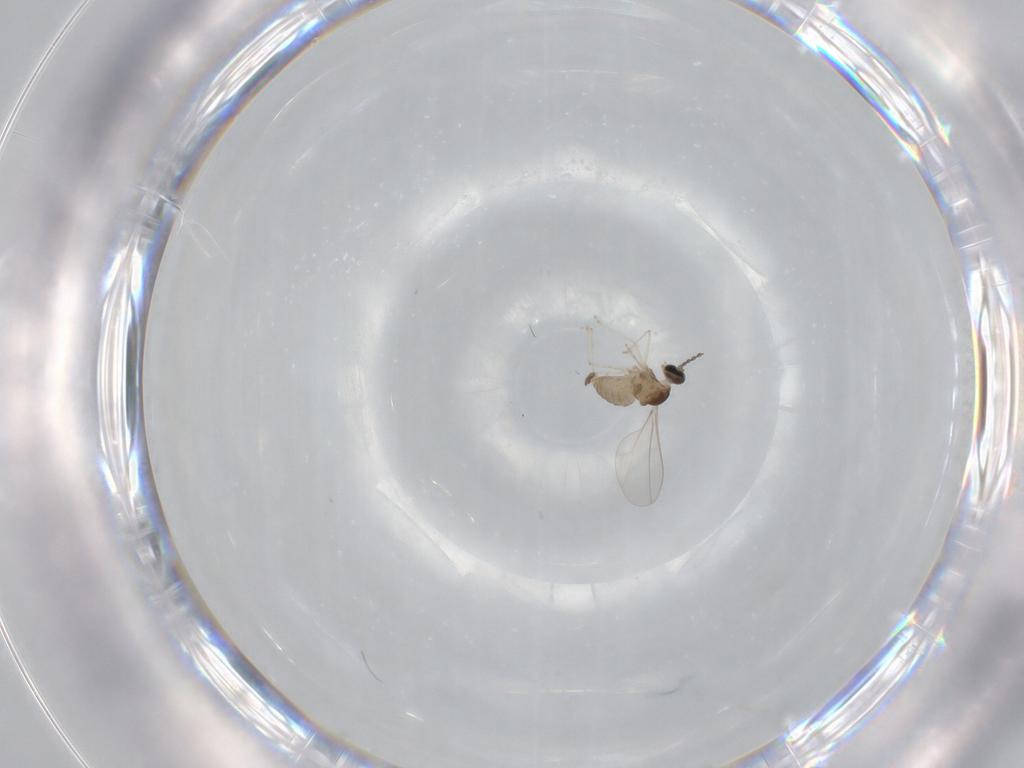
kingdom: Animalia
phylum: Arthropoda
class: Insecta
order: Diptera
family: Cecidomyiidae
